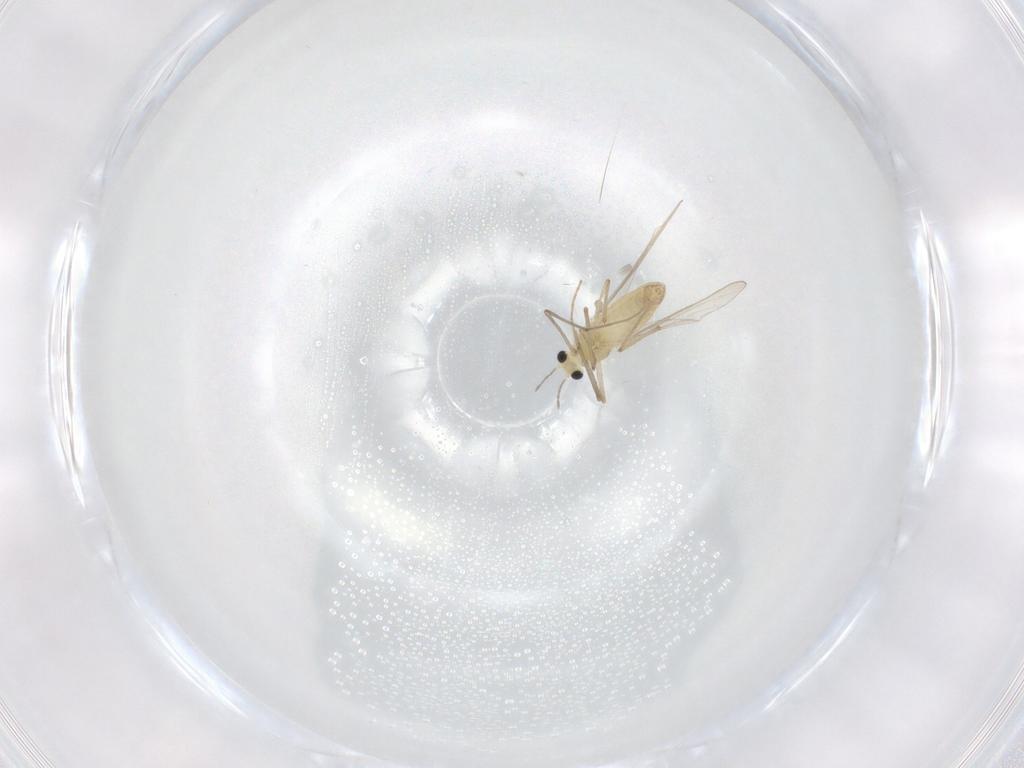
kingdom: Animalia
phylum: Arthropoda
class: Insecta
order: Diptera
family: Chironomidae
